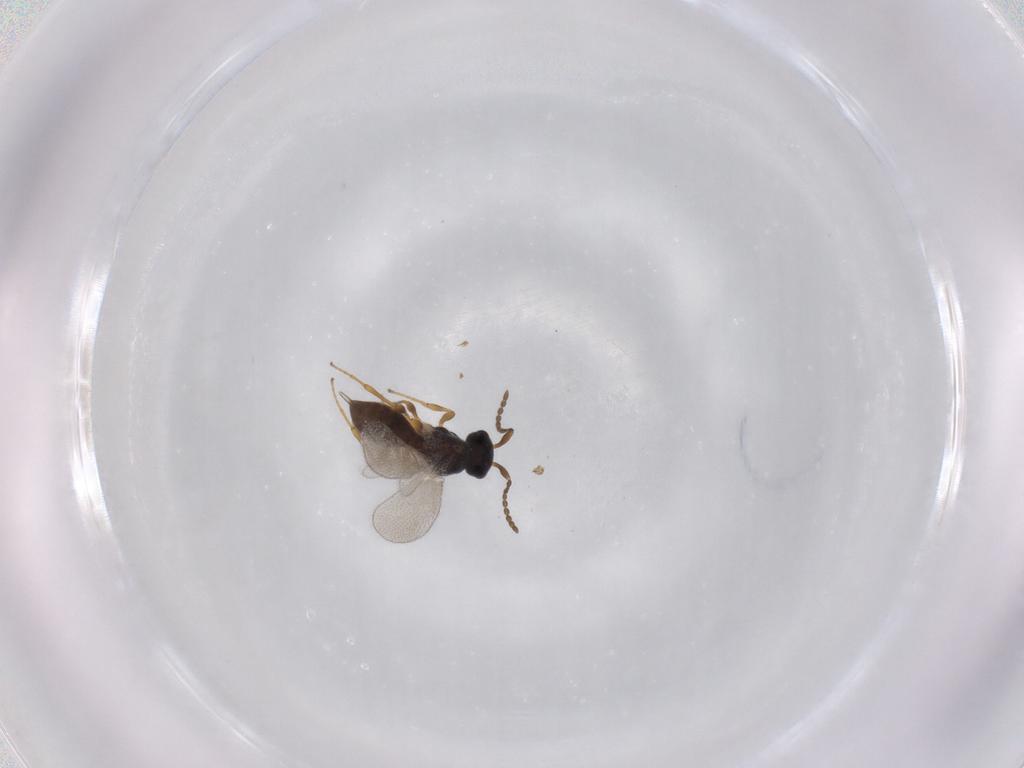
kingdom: Animalia
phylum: Arthropoda
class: Insecta
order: Diptera
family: Mythicomyiidae
